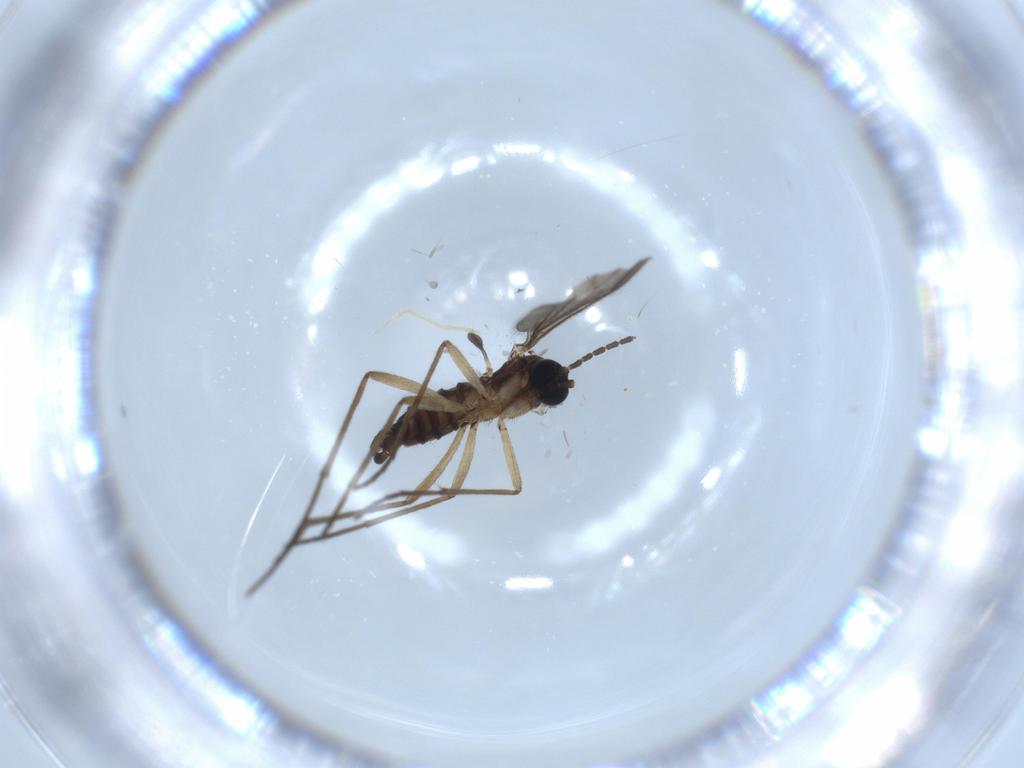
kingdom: Animalia
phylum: Arthropoda
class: Insecta
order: Diptera
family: Sciaridae
